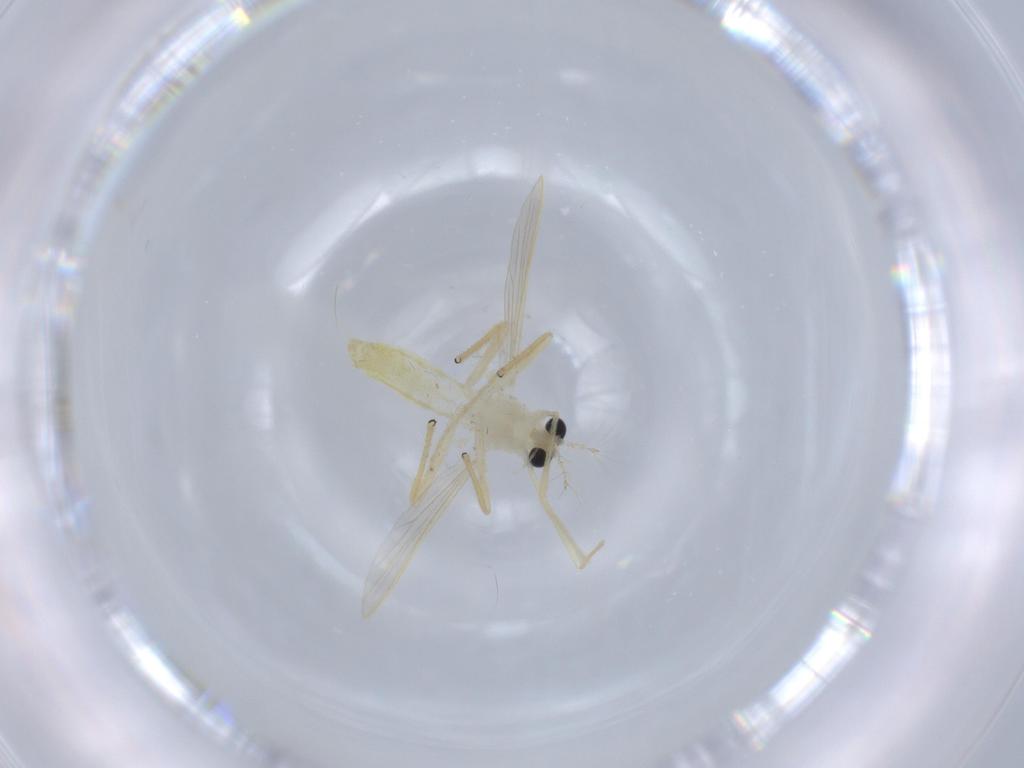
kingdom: Animalia
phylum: Arthropoda
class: Insecta
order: Diptera
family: Chironomidae
